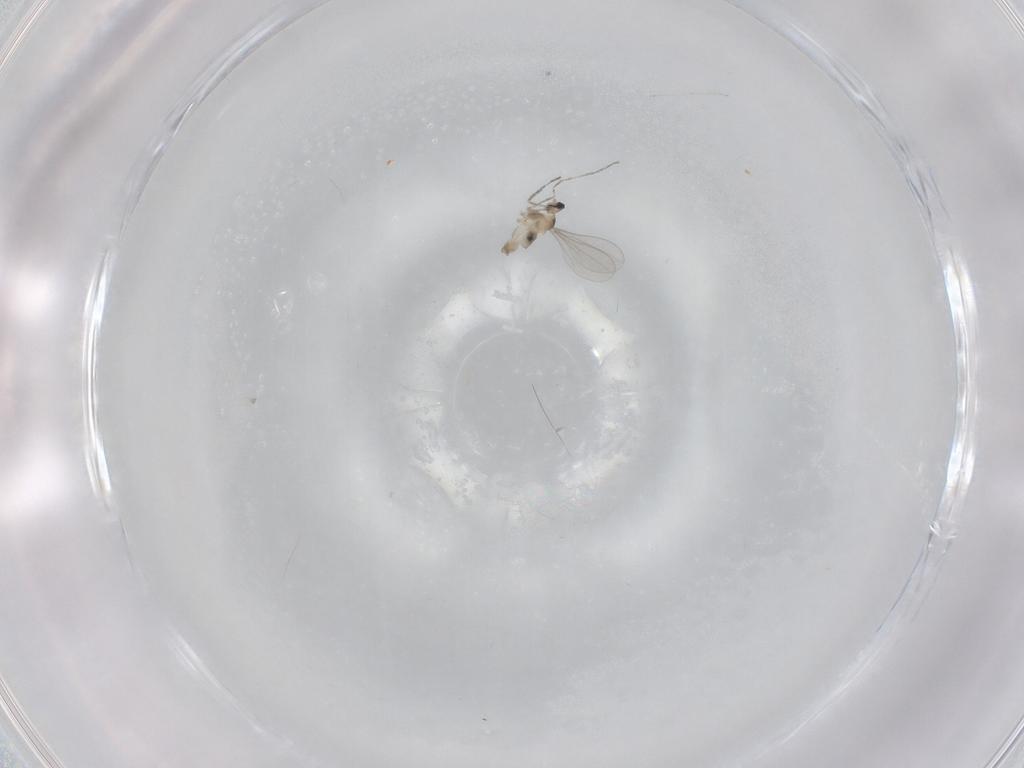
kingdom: Animalia
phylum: Arthropoda
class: Insecta
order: Diptera
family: Cecidomyiidae
